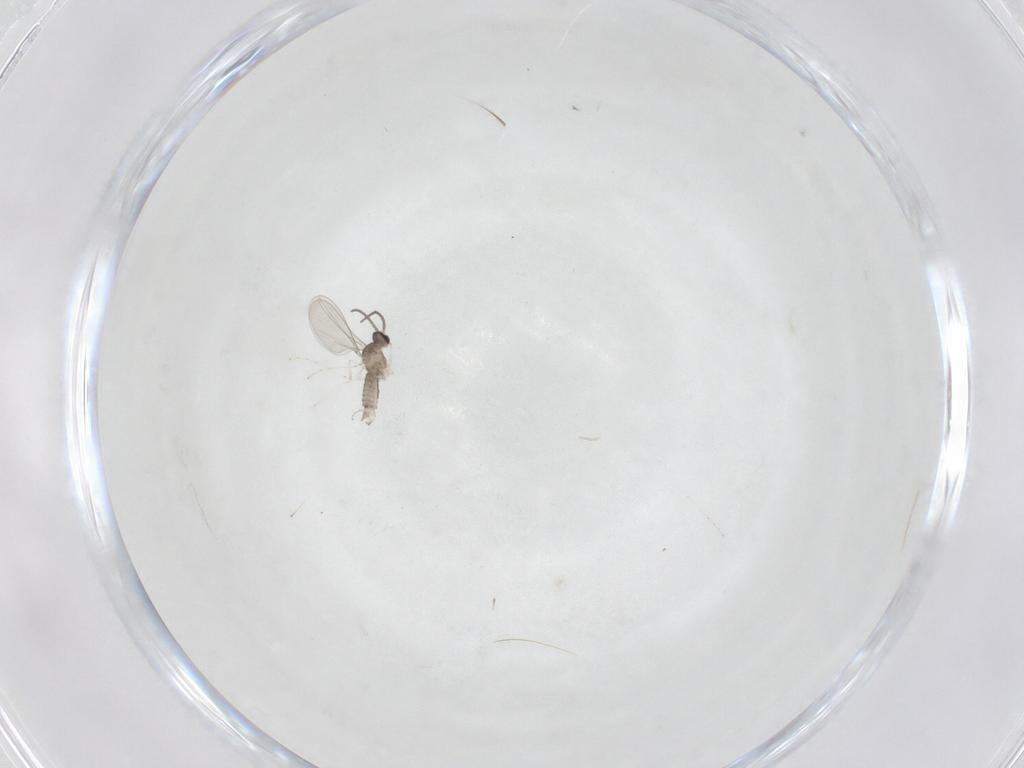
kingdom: Animalia
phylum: Arthropoda
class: Insecta
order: Diptera
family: Cecidomyiidae
